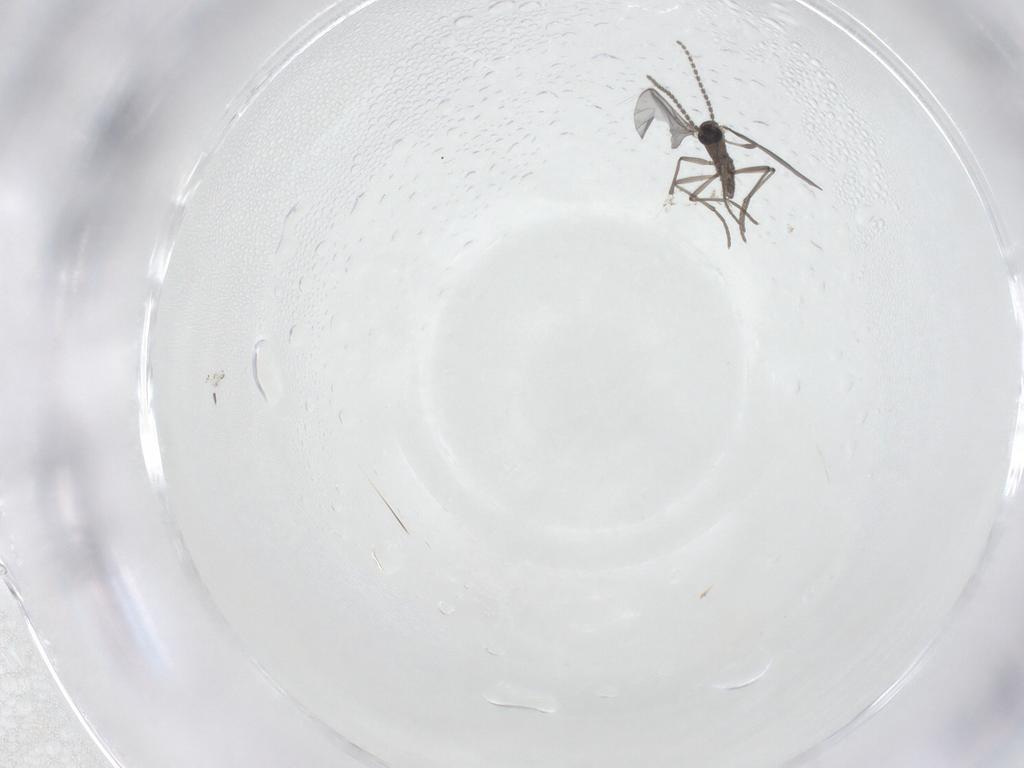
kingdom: Animalia
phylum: Arthropoda
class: Insecta
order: Diptera
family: Sciaridae
